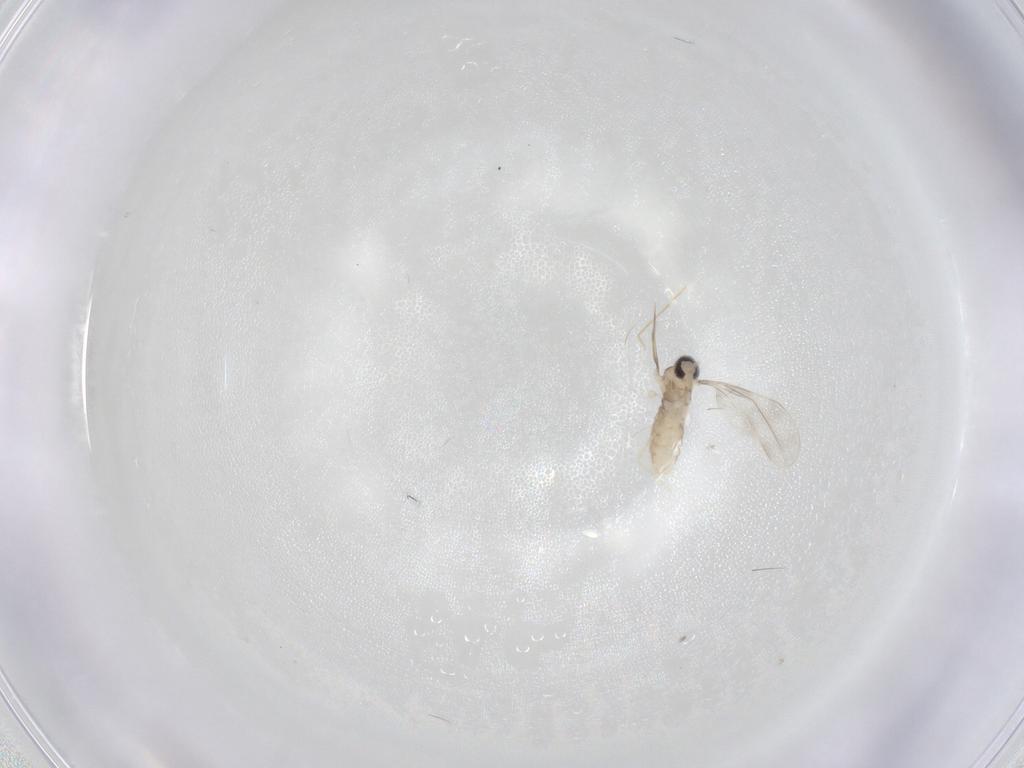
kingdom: Animalia
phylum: Arthropoda
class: Insecta
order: Diptera
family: Cecidomyiidae
